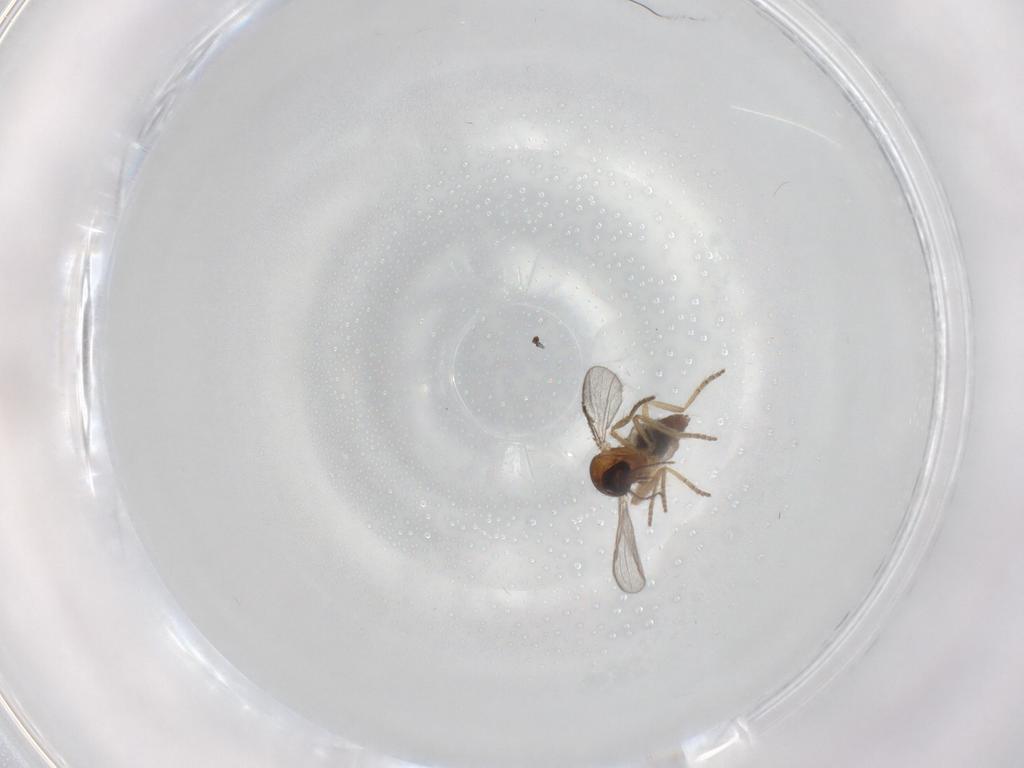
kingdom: Animalia
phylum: Arthropoda
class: Insecta
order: Diptera
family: Ceratopogonidae
